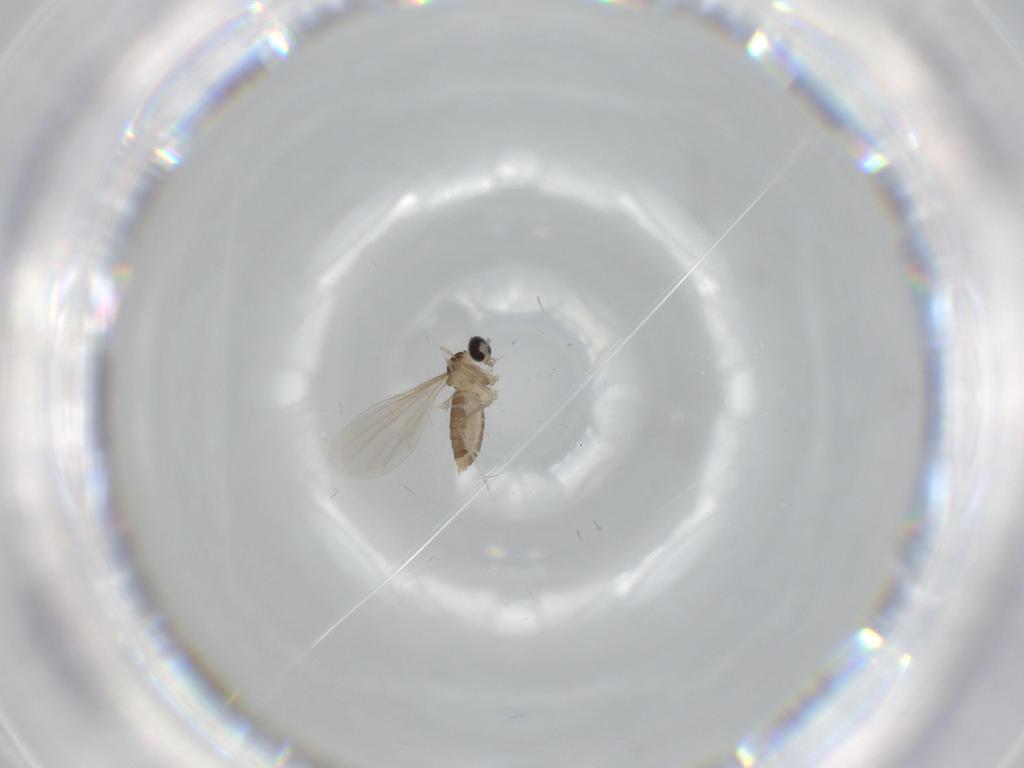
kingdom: Animalia
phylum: Arthropoda
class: Insecta
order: Diptera
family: Cecidomyiidae
